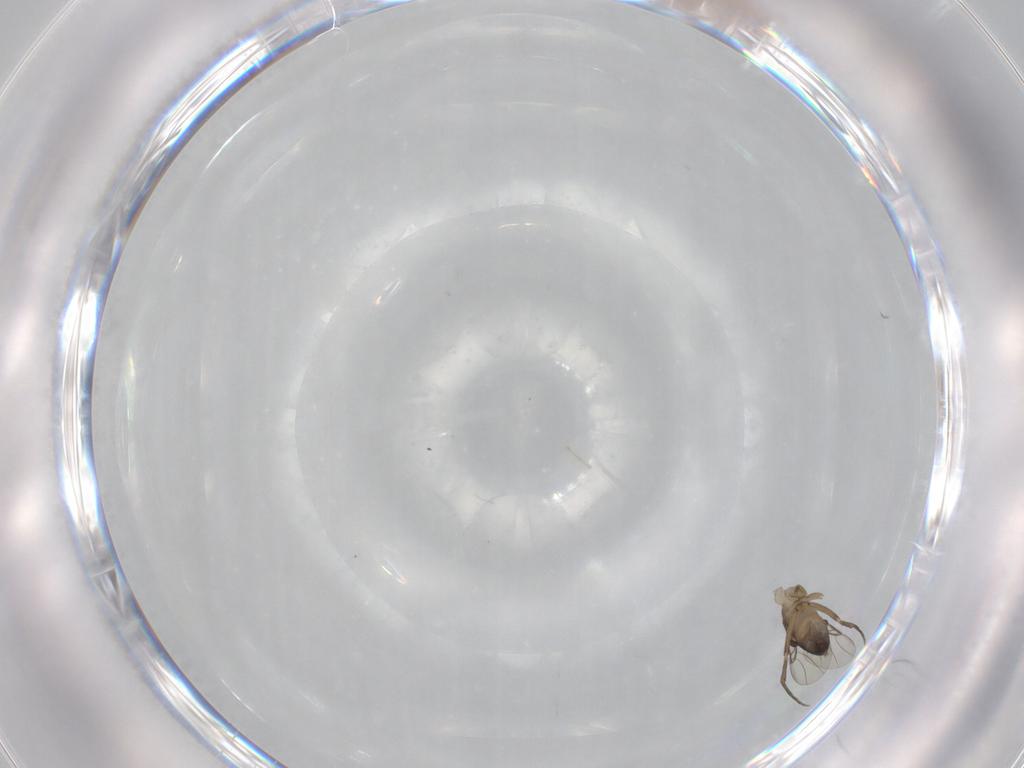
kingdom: Animalia
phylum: Arthropoda
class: Insecta
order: Diptera
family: Phoridae
